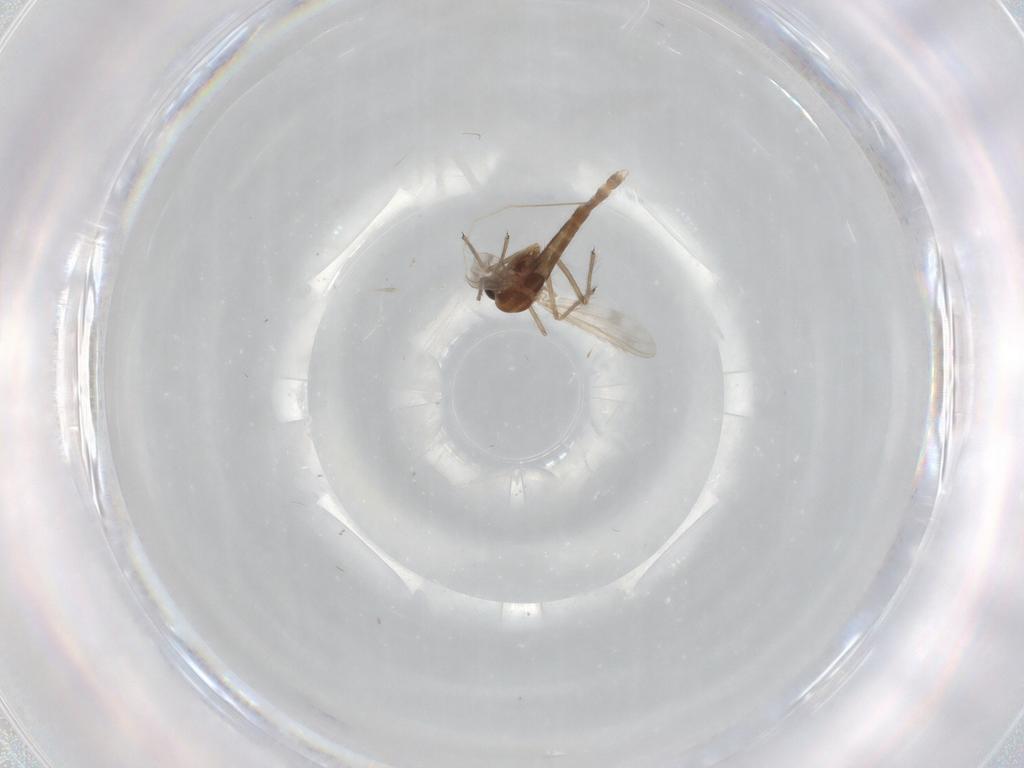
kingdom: Animalia
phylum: Arthropoda
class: Insecta
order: Diptera
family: Chironomidae
